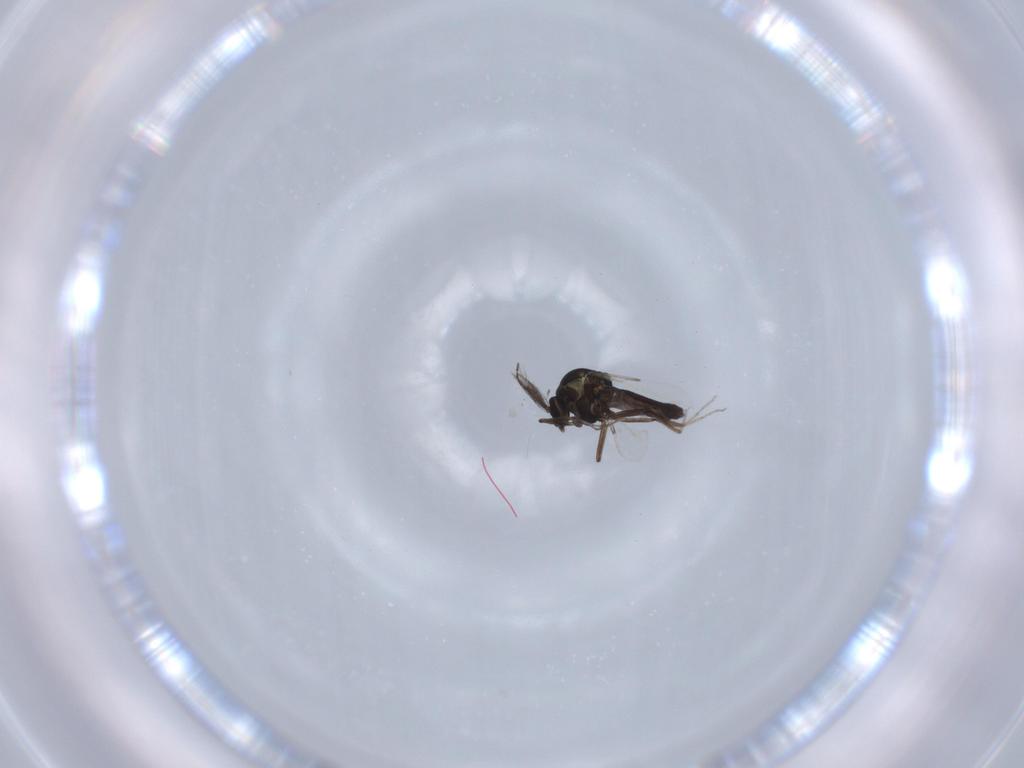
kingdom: Animalia
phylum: Arthropoda
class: Insecta
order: Diptera
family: Ceratopogonidae
